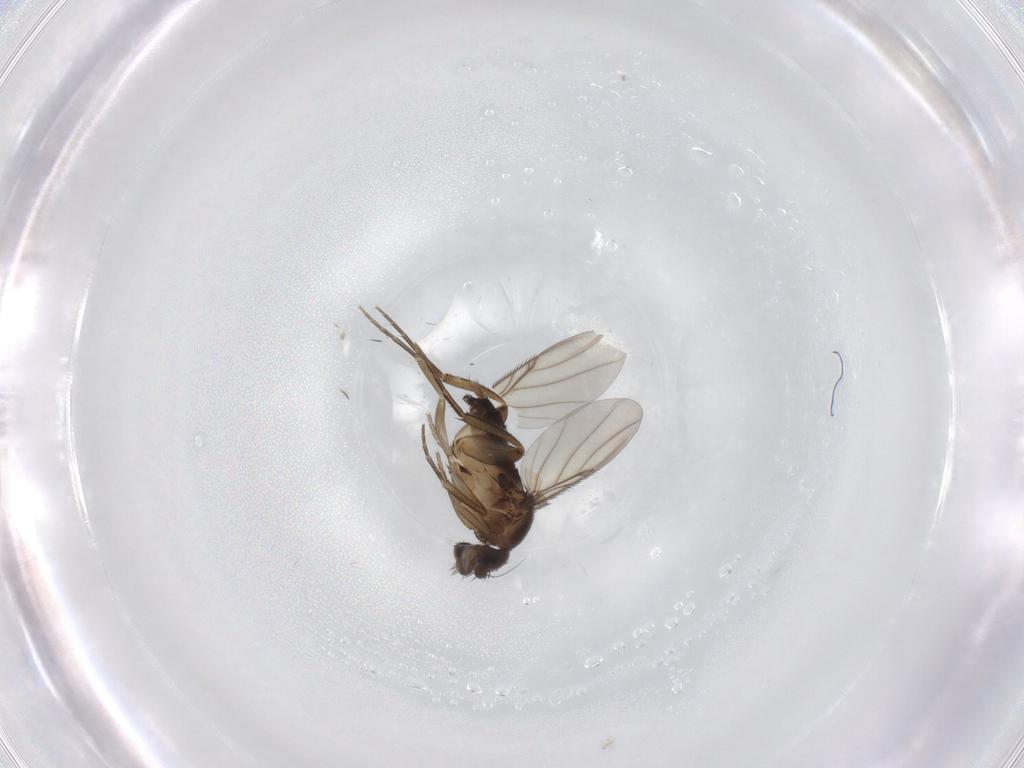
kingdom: Animalia
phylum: Arthropoda
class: Insecta
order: Diptera
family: Phoridae
